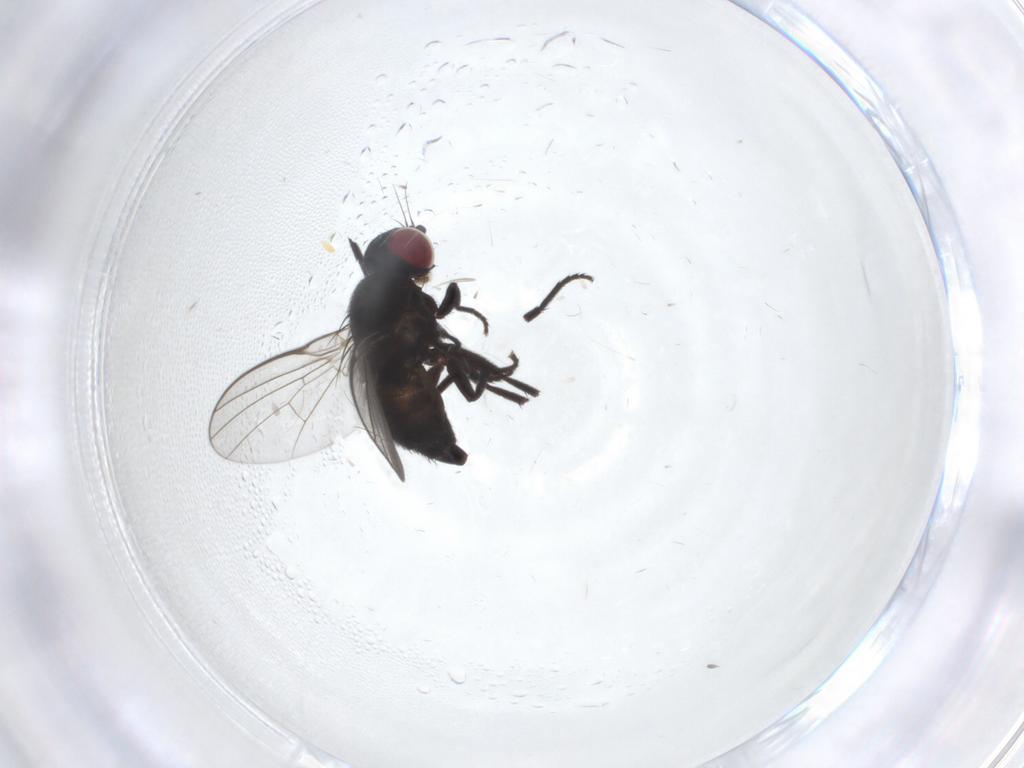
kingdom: Animalia
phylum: Arthropoda
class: Insecta
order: Diptera
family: Agromyzidae
